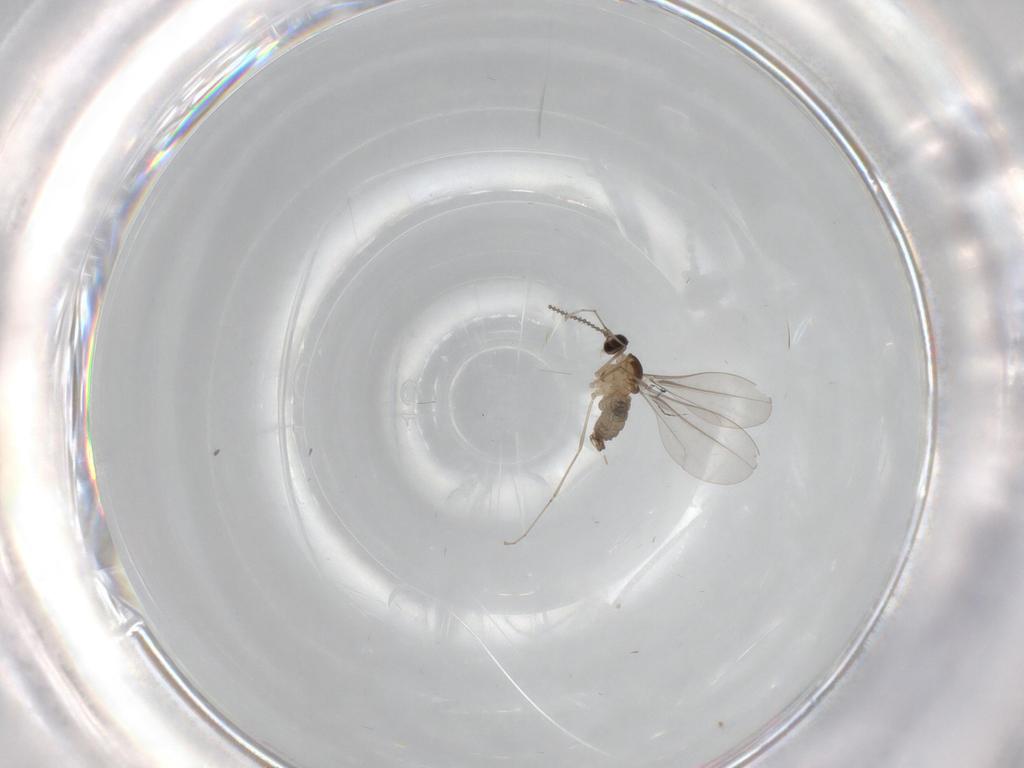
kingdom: Animalia
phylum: Arthropoda
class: Insecta
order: Diptera
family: Cecidomyiidae
